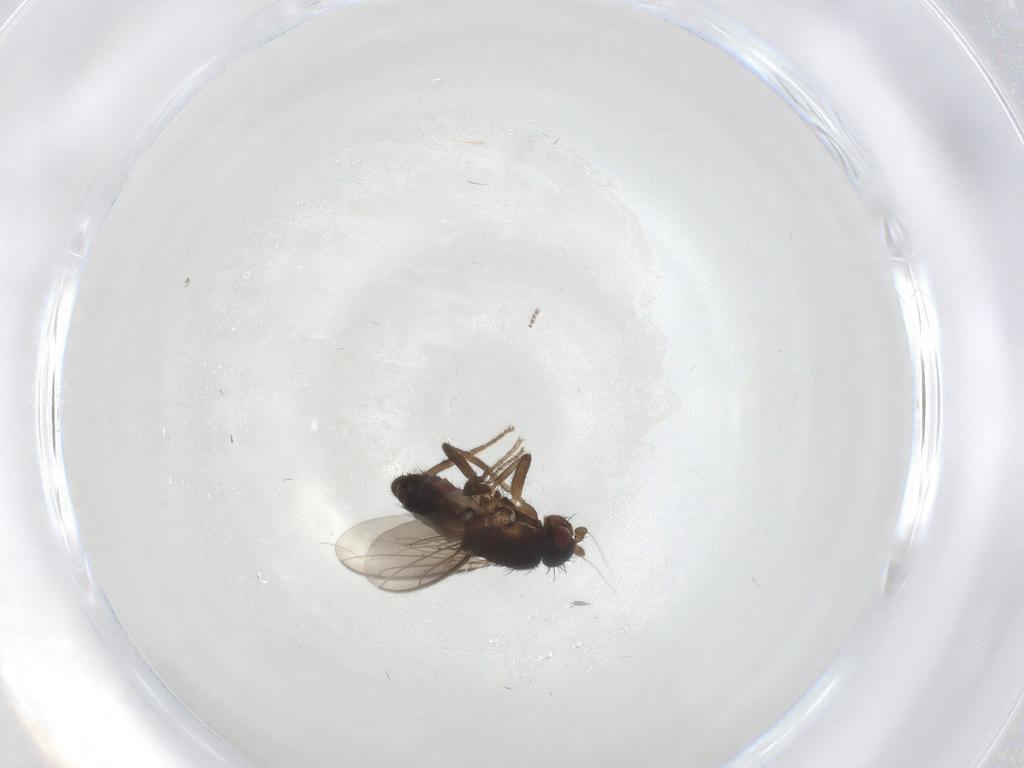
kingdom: Animalia
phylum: Arthropoda
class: Insecta
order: Diptera
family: Sphaeroceridae
